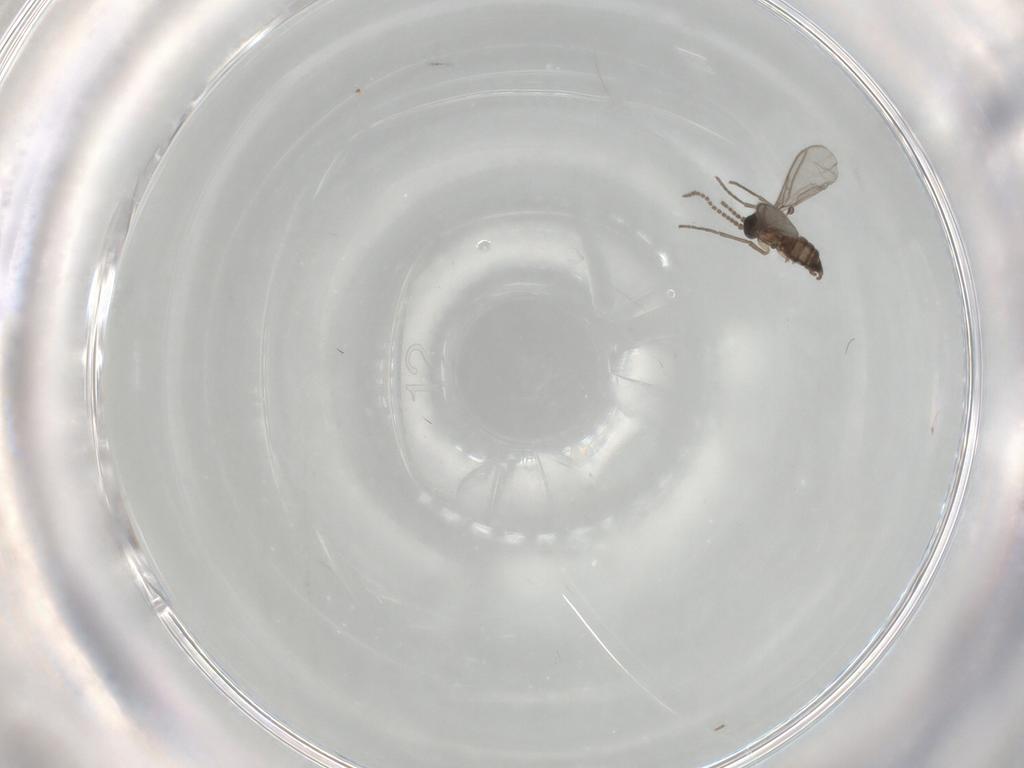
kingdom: Animalia
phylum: Arthropoda
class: Insecta
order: Diptera
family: Sciaridae
